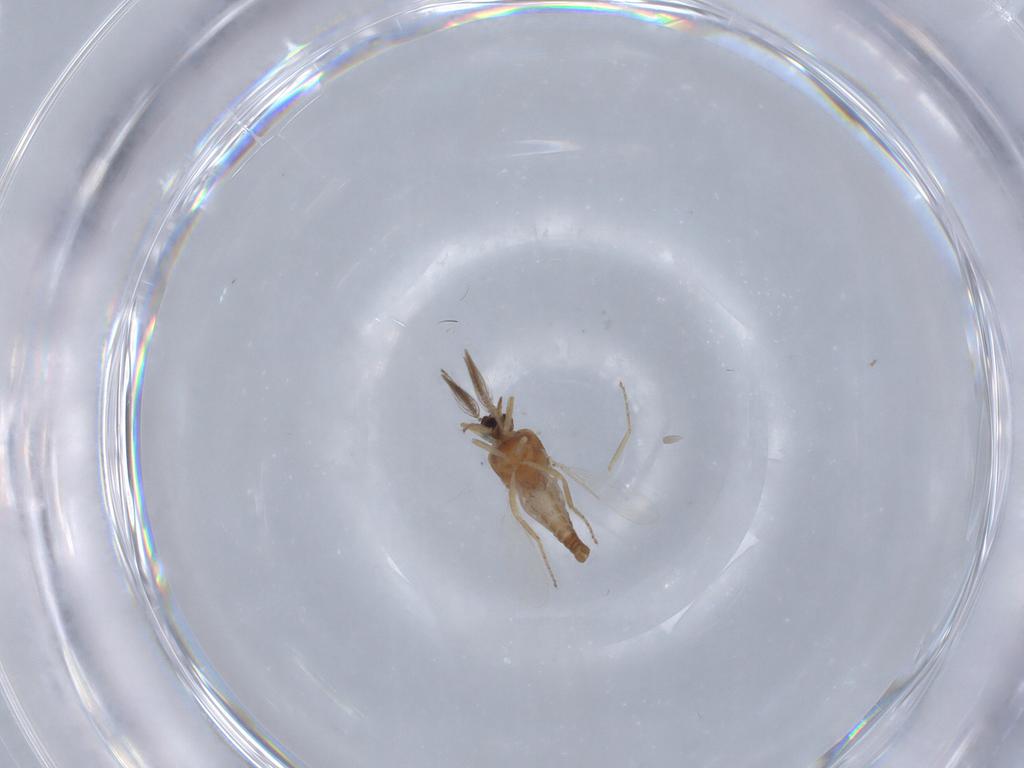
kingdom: Animalia
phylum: Arthropoda
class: Insecta
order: Diptera
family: Ceratopogonidae
